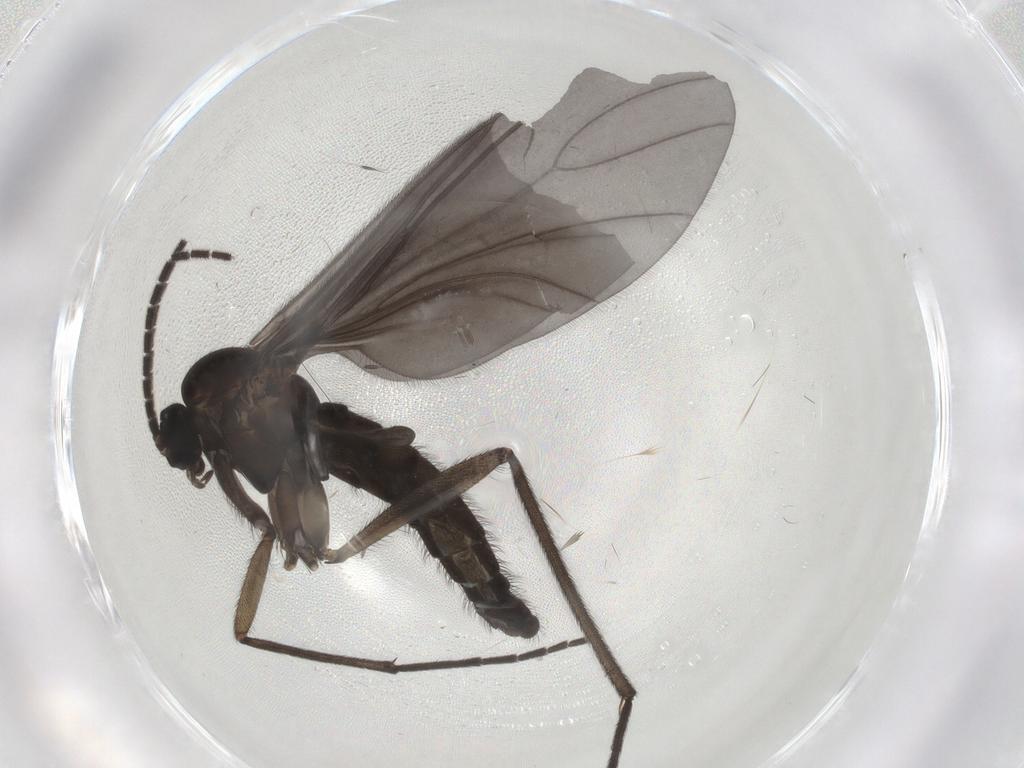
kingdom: Animalia
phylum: Arthropoda
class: Insecta
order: Diptera
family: Sciaridae
